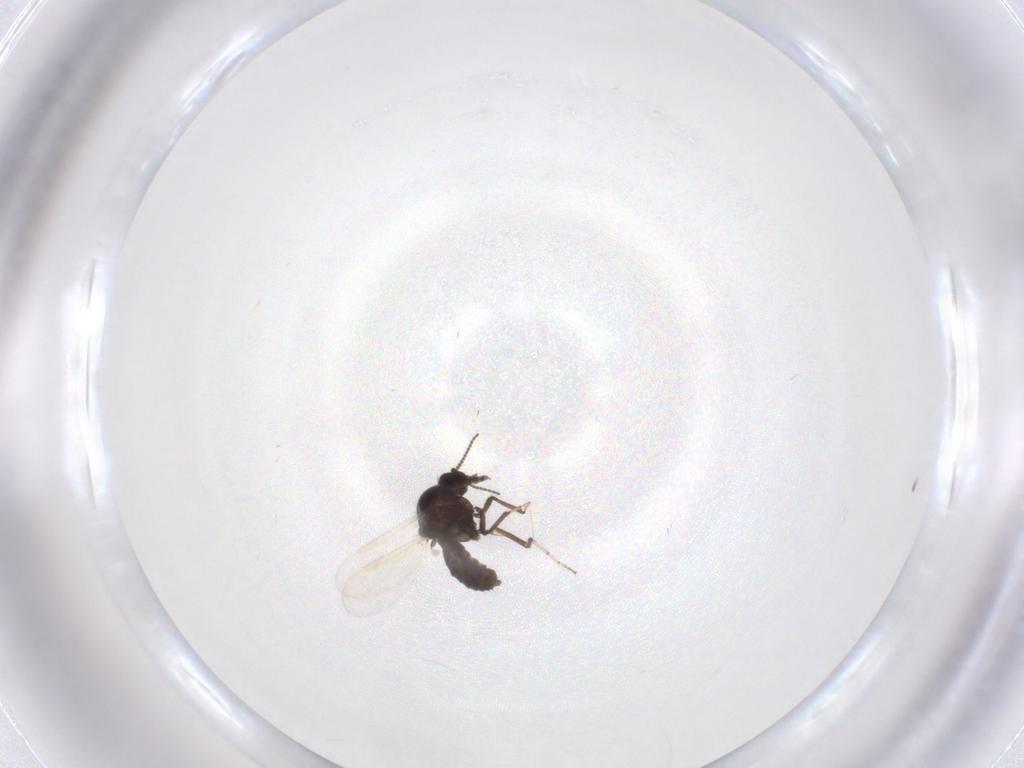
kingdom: Animalia
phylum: Arthropoda
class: Insecta
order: Diptera
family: Ceratopogonidae
